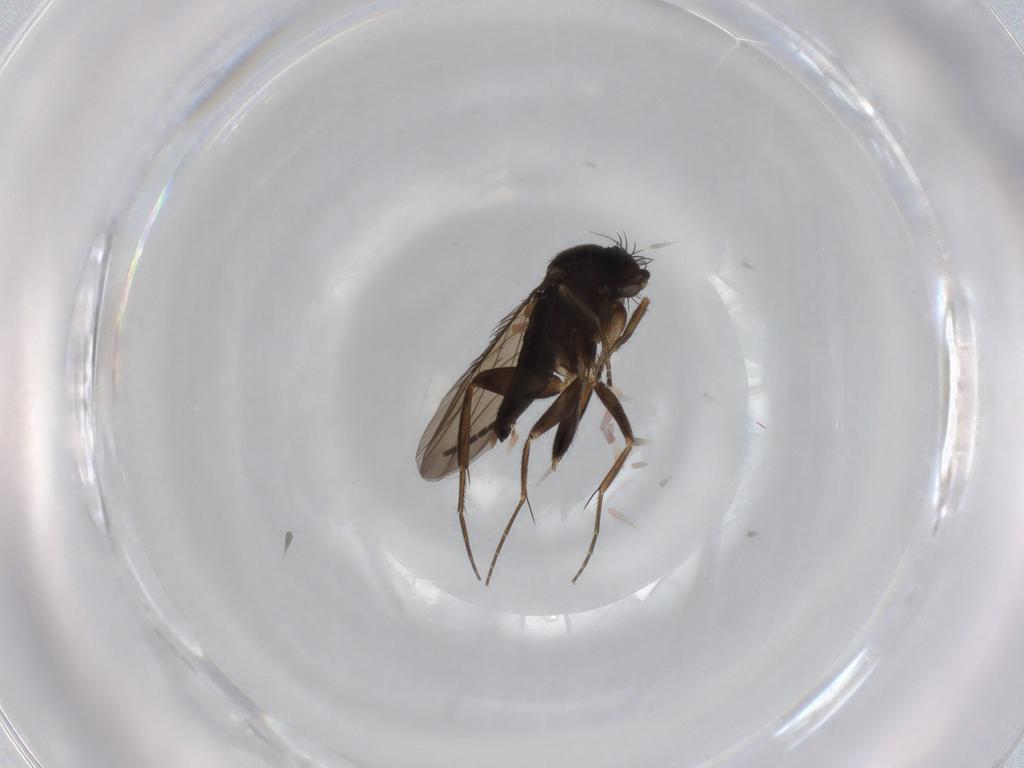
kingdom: Animalia
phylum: Arthropoda
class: Insecta
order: Diptera
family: Phoridae
